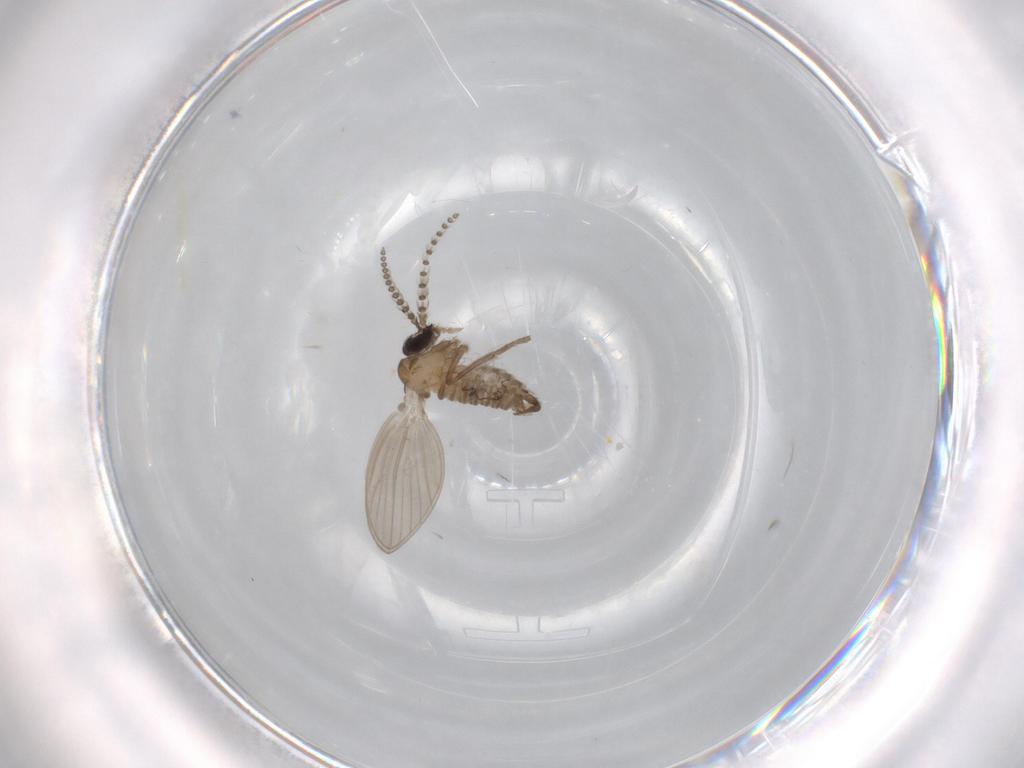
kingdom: Animalia
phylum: Arthropoda
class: Insecta
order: Diptera
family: Psychodidae
